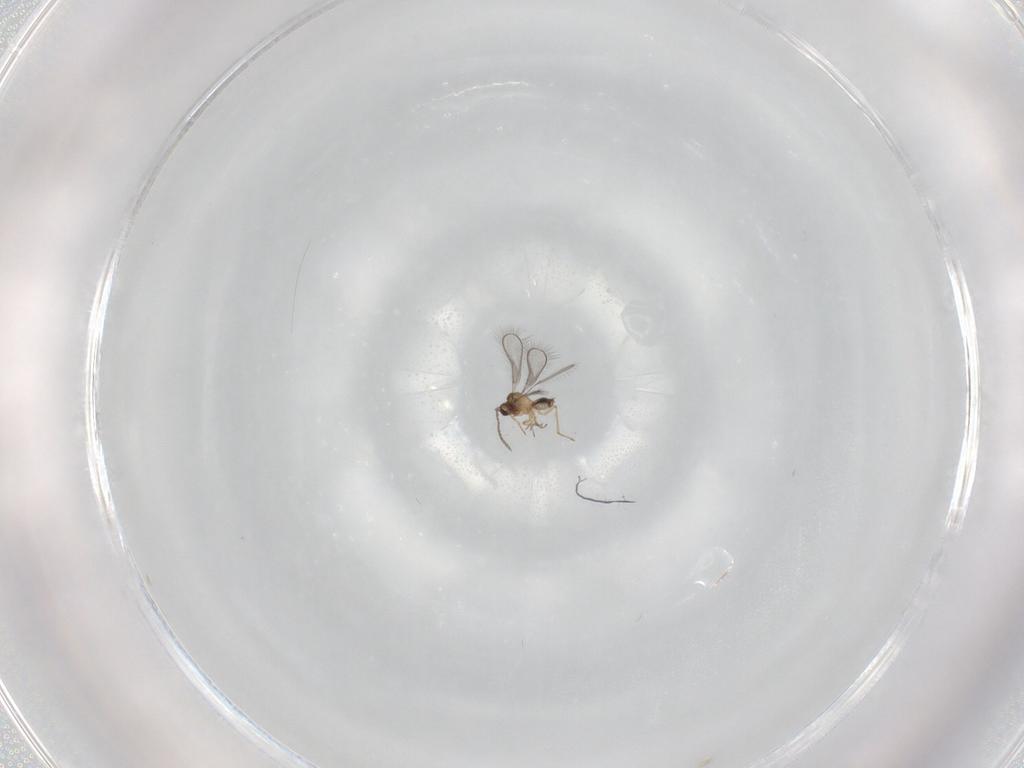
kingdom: Animalia
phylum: Arthropoda
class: Insecta
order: Hymenoptera
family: Mymaridae
